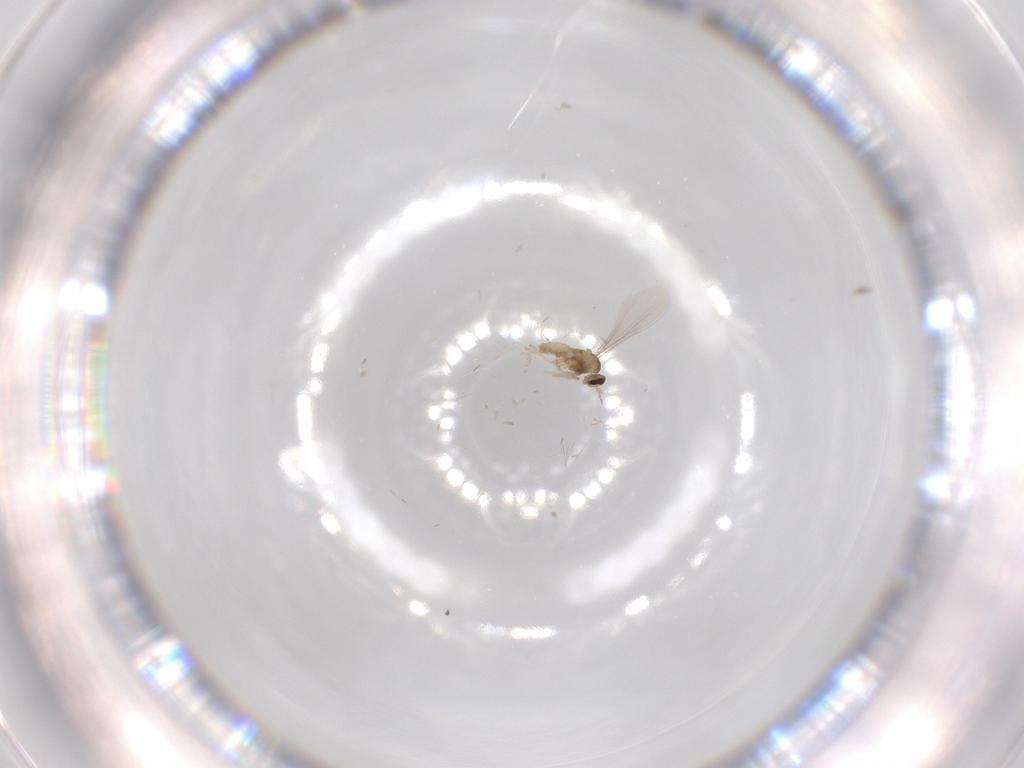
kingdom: Animalia
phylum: Arthropoda
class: Insecta
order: Diptera
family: Cecidomyiidae
